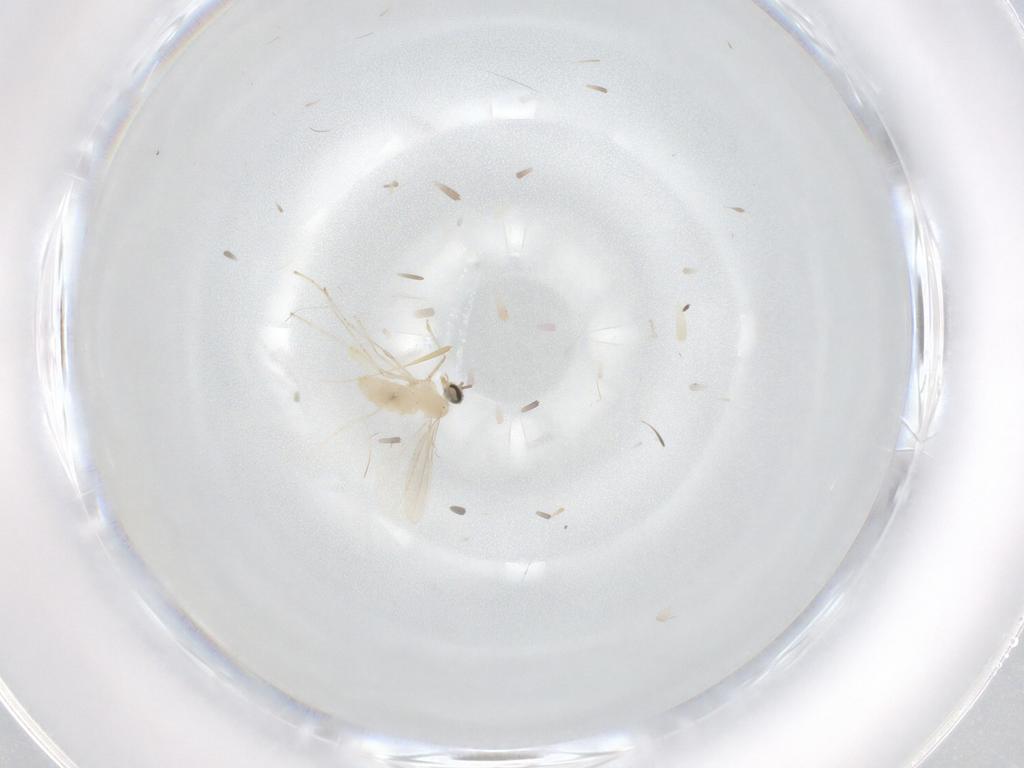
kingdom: Animalia
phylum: Arthropoda
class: Insecta
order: Diptera
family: Cecidomyiidae
